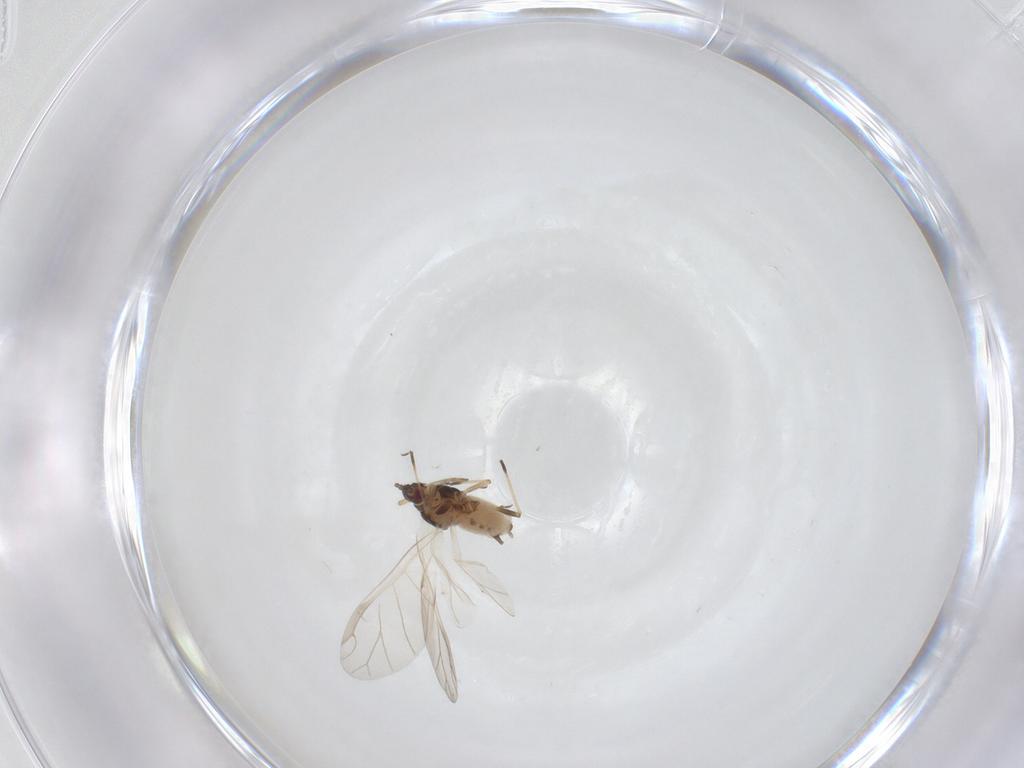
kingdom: Animalia
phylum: Arthropoda
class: Insecta
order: Hemiptera
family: Aphididae
